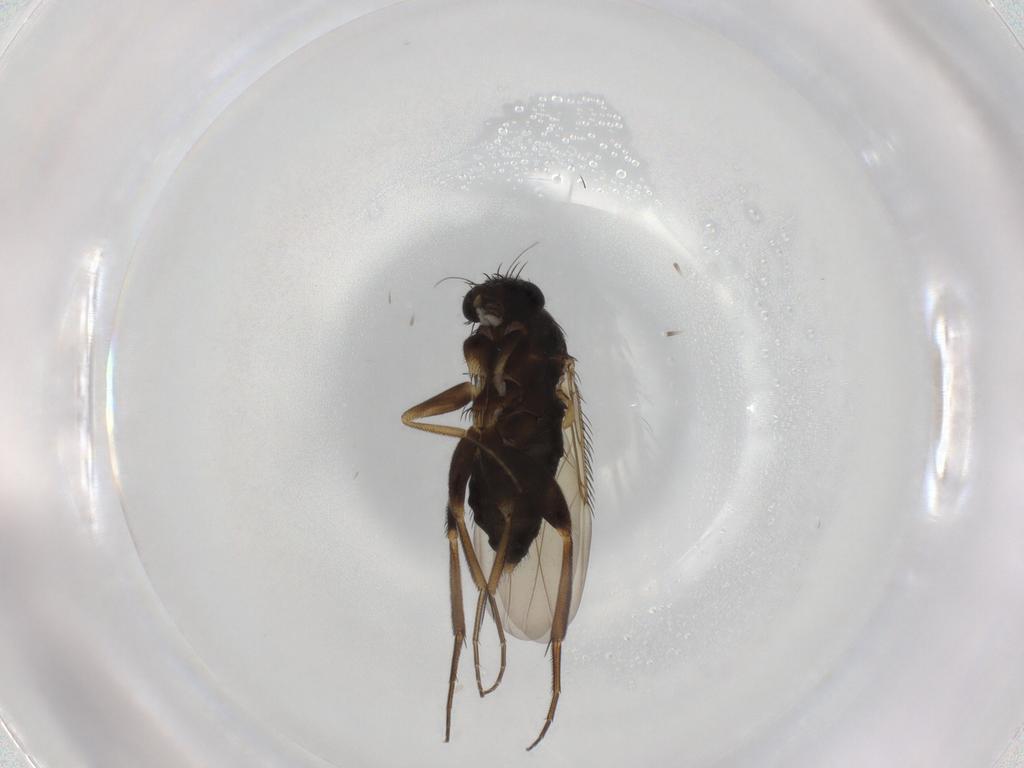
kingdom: Animalia
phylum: Arthropoda
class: Insecta
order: Diptera
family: Phoridae
